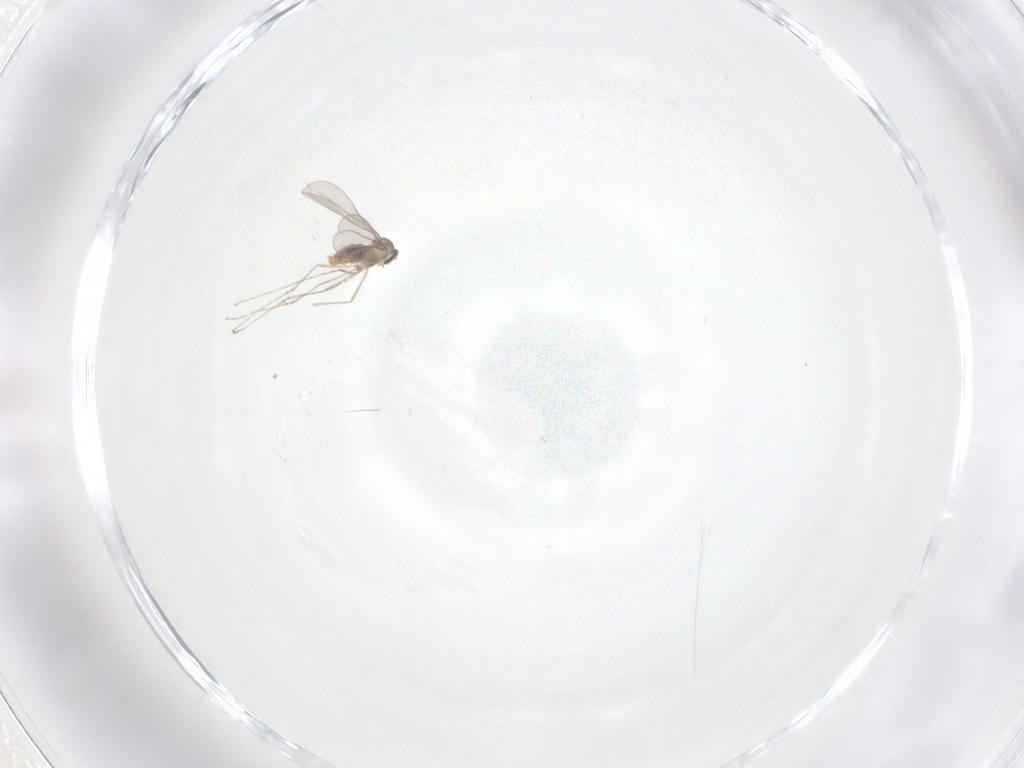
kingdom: Animalia
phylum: Arthropoda
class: Insecta
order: Diptera
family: Cecidomyiidae
